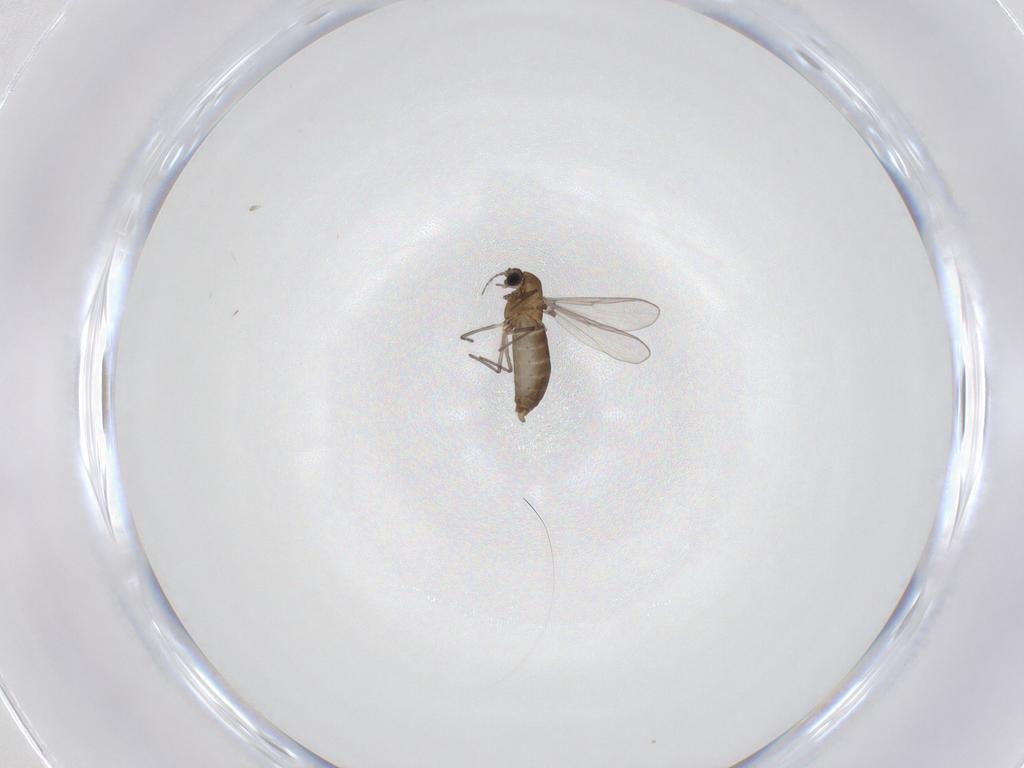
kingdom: Animalia
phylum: Arthropoda
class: Insecta
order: Diptera
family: Chironomidae
